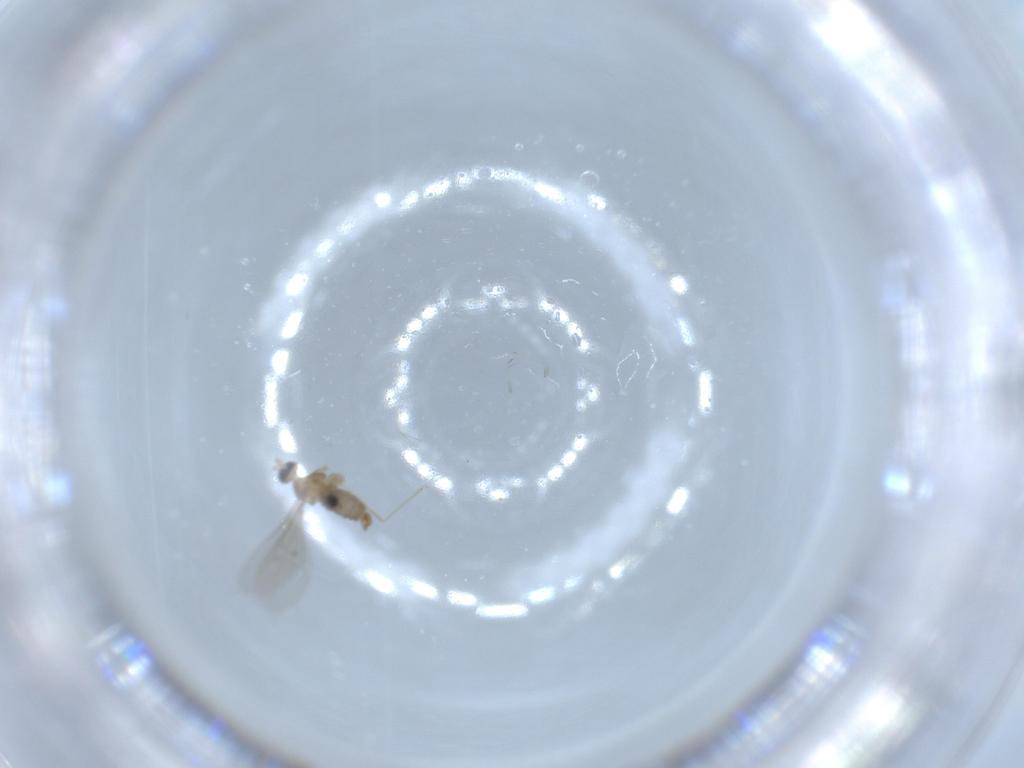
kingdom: Animalia
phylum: Arthropoda
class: Insecta
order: Diptera
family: Cecidomyiidae
